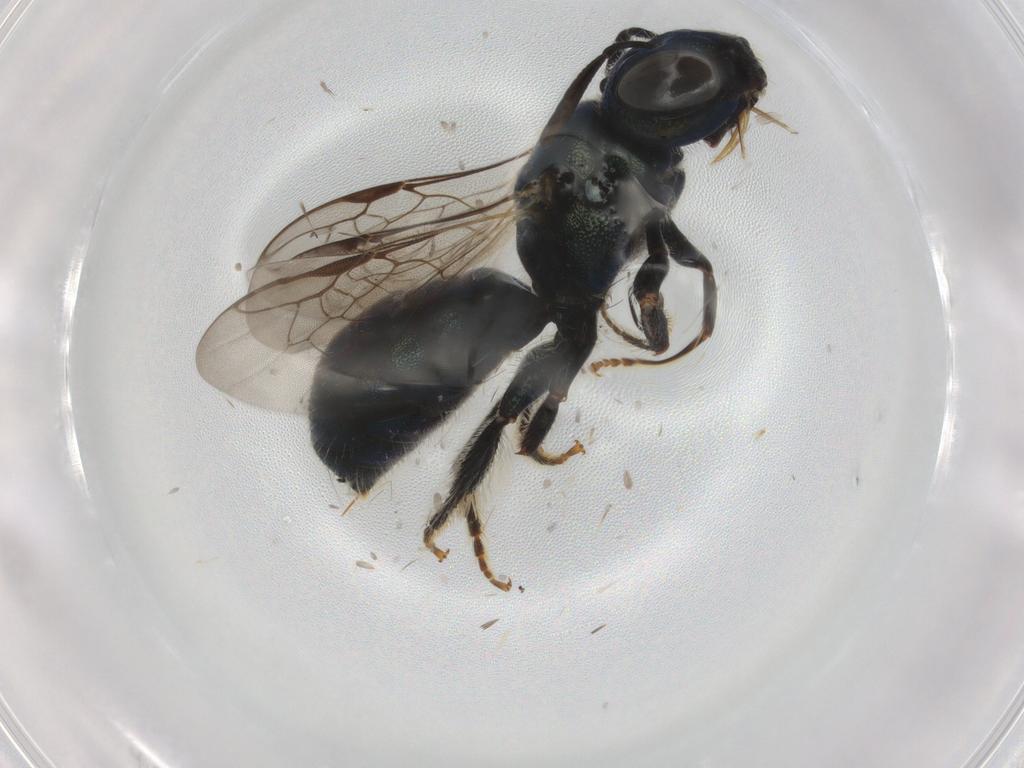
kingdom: Animalia
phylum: Arthropoda
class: Insecta
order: Hymenoptera
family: Apidae
